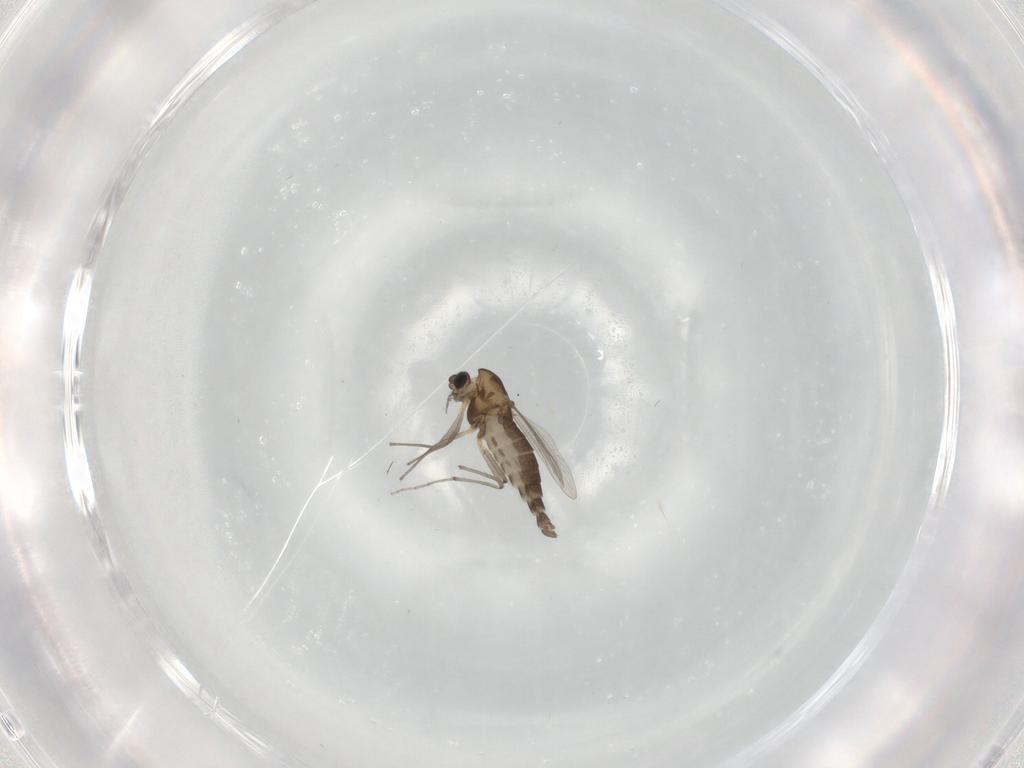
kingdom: Animalia
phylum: Arthropoda
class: Insecta
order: Diptera
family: Chironomidae
